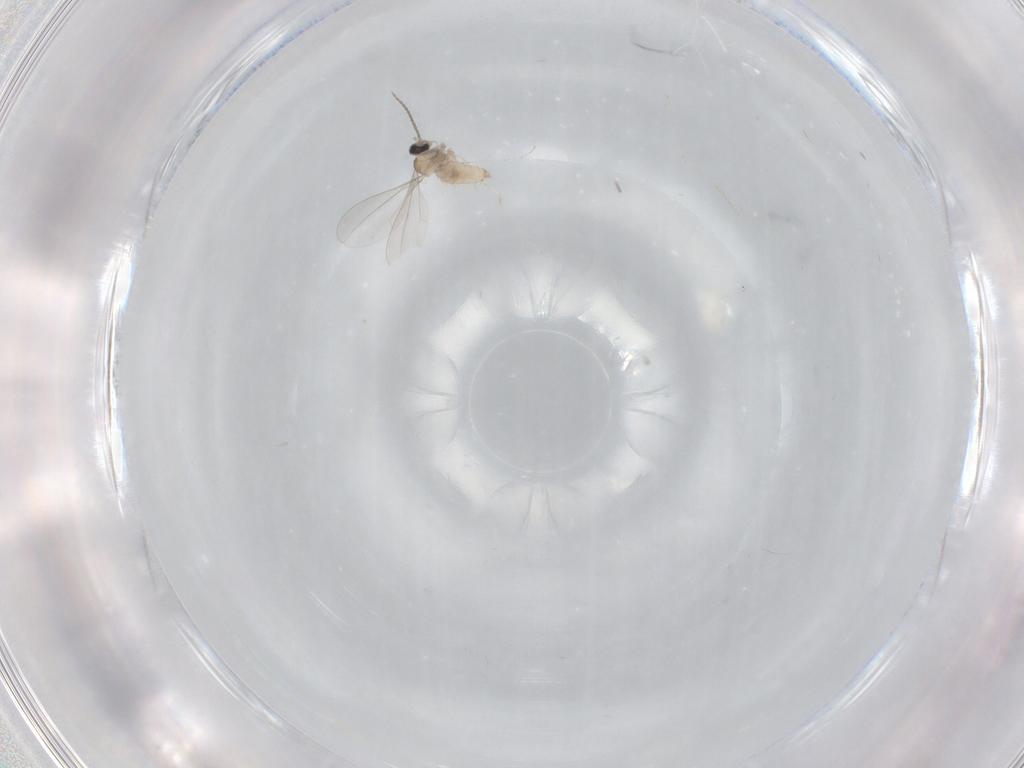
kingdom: Animalia
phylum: Arthropoda
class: Insecta
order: Diptera
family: Cecidomyiidae
